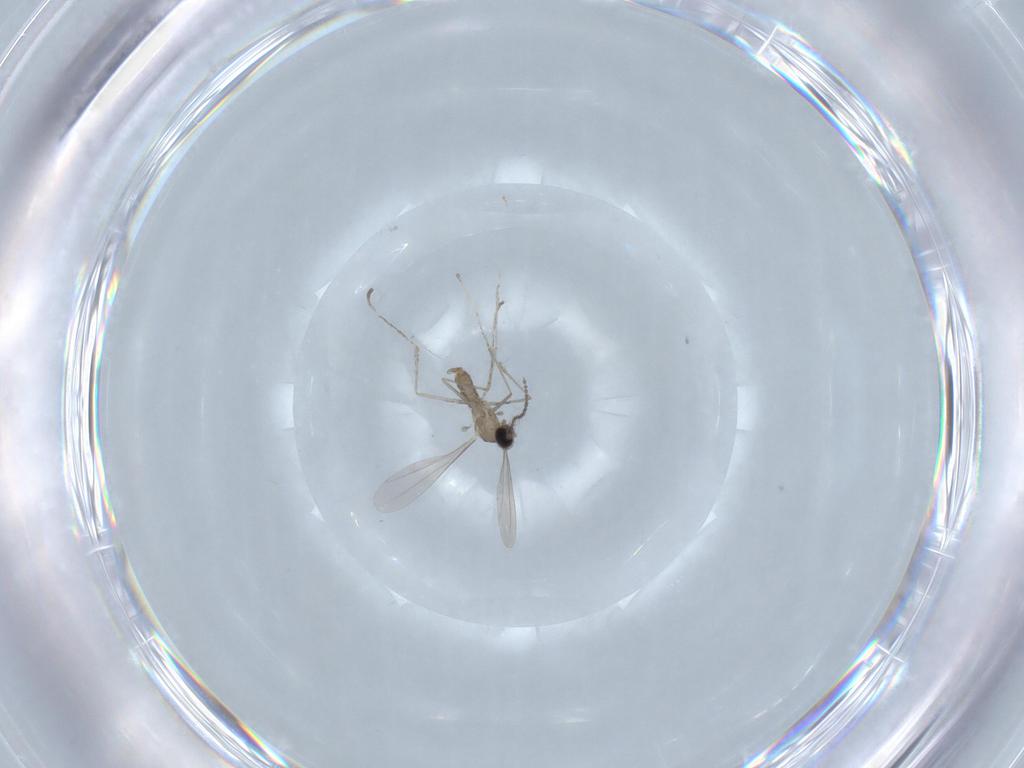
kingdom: Animalia
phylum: Arthropoda
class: Insecta
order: Diptera
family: Cecidomyiidae
